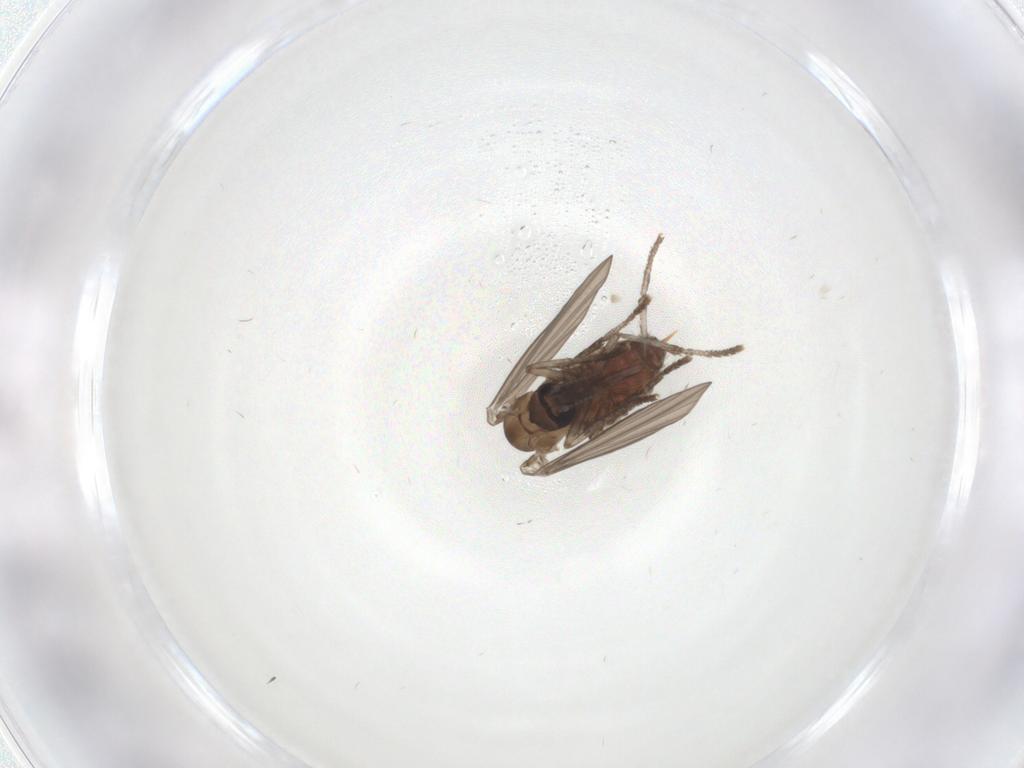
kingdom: Animalia
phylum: Arthropoda
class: Insecta
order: Diptera
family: Psychodidae
